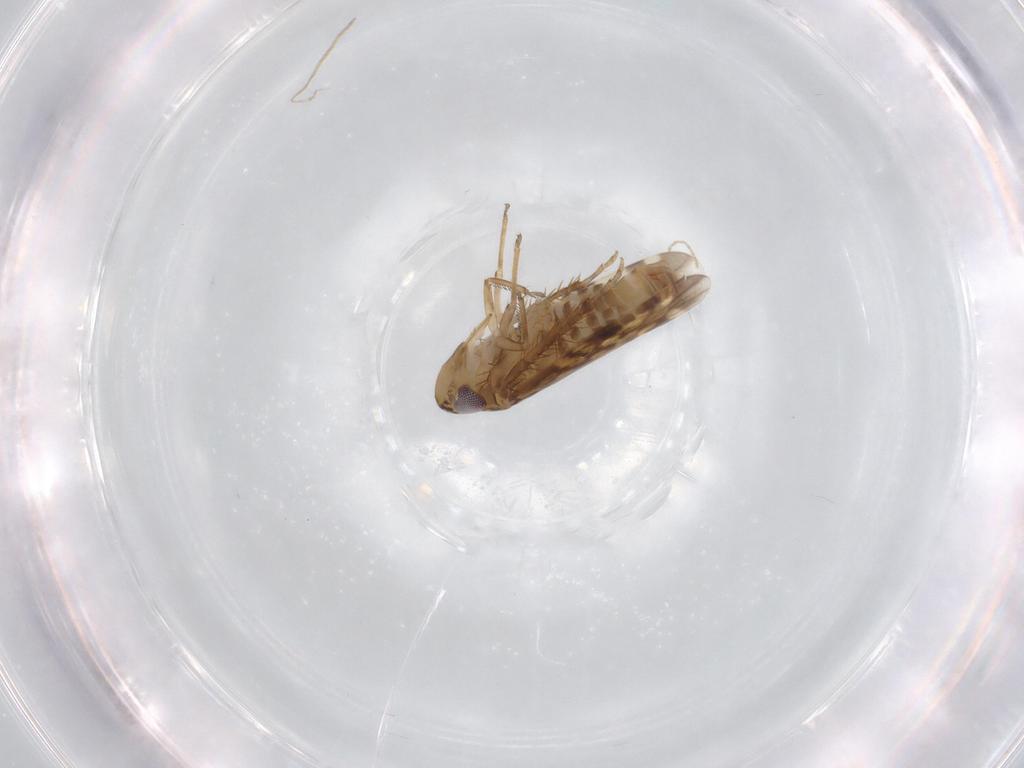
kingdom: Animalia
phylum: Arthropoda
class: Insecta
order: Hemiptera
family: Cicadellidae
